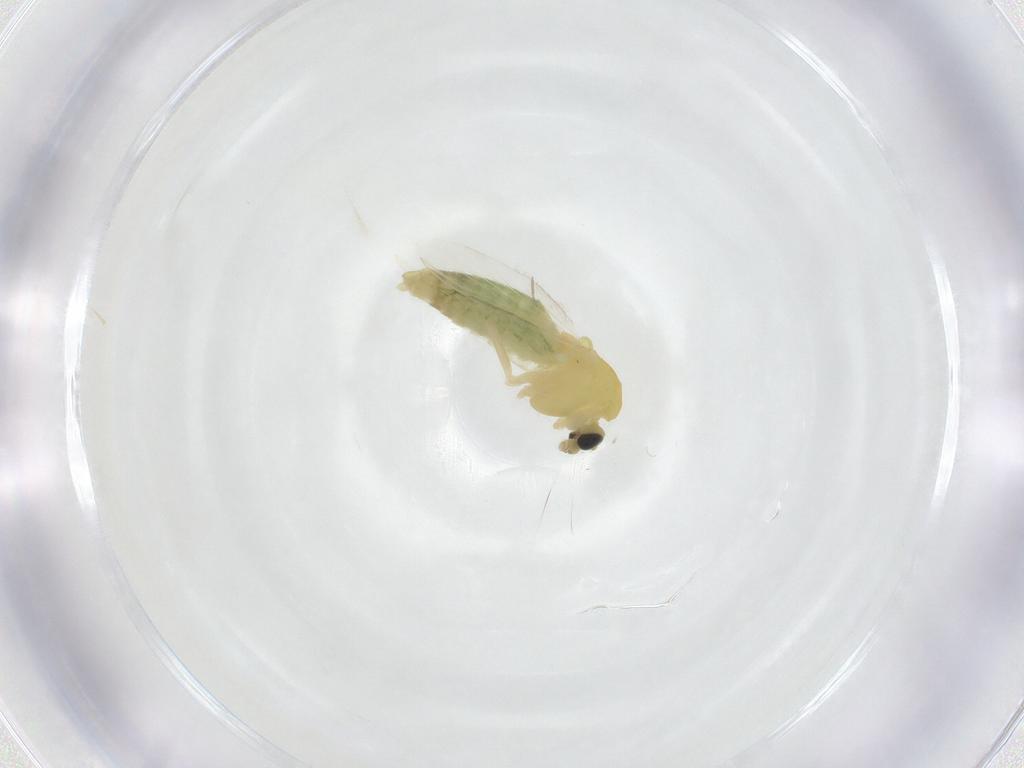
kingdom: Animalia
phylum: Arthropoda
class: Insecta
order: Diptera
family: Chironomidae
